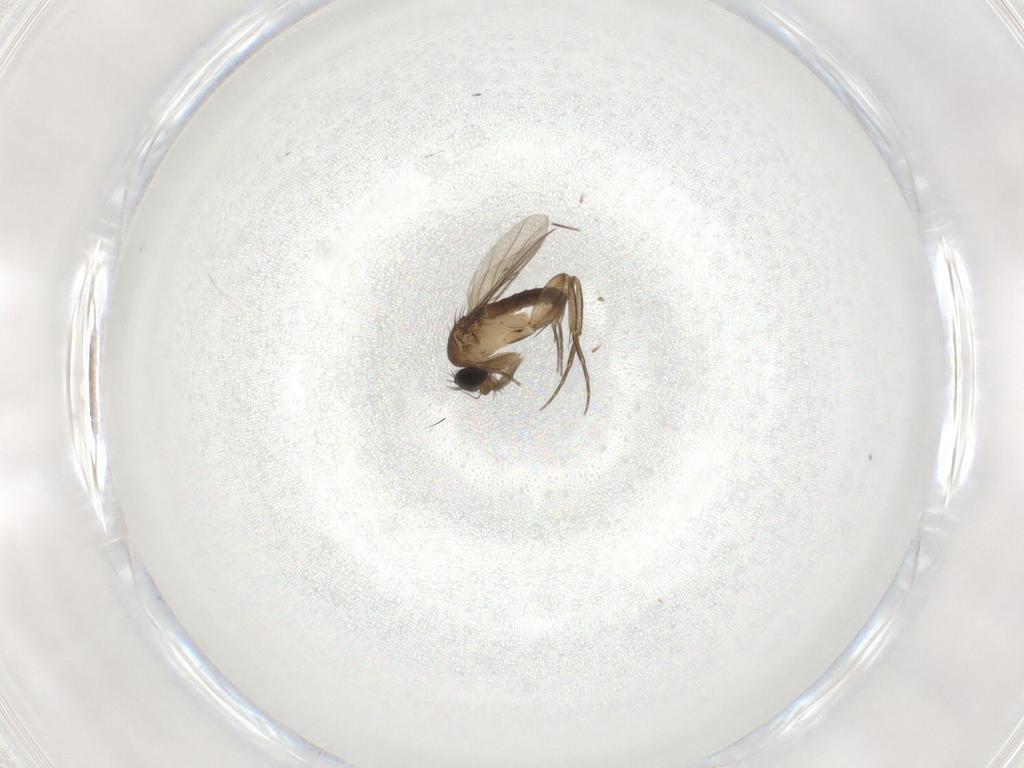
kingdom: Animalia
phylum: Arthropoda
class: Insecta
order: Diptera
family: Phoridae
